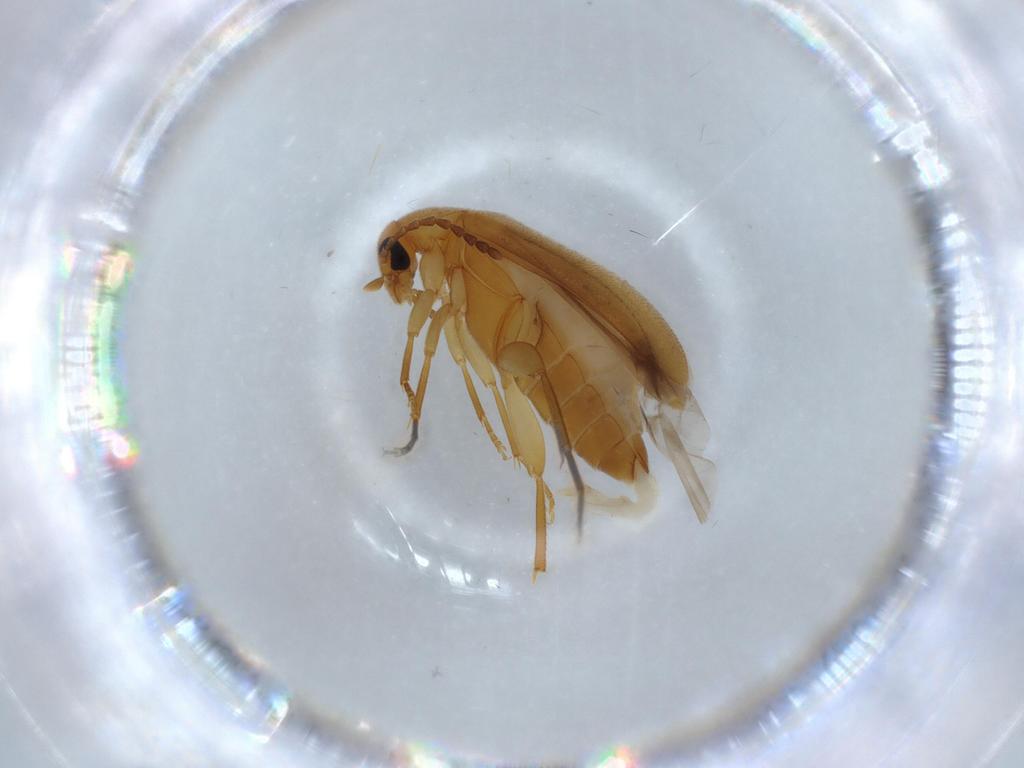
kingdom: Animalia
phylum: Arthropoda
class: Insecta
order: Coleoptera
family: Scraptiidae
